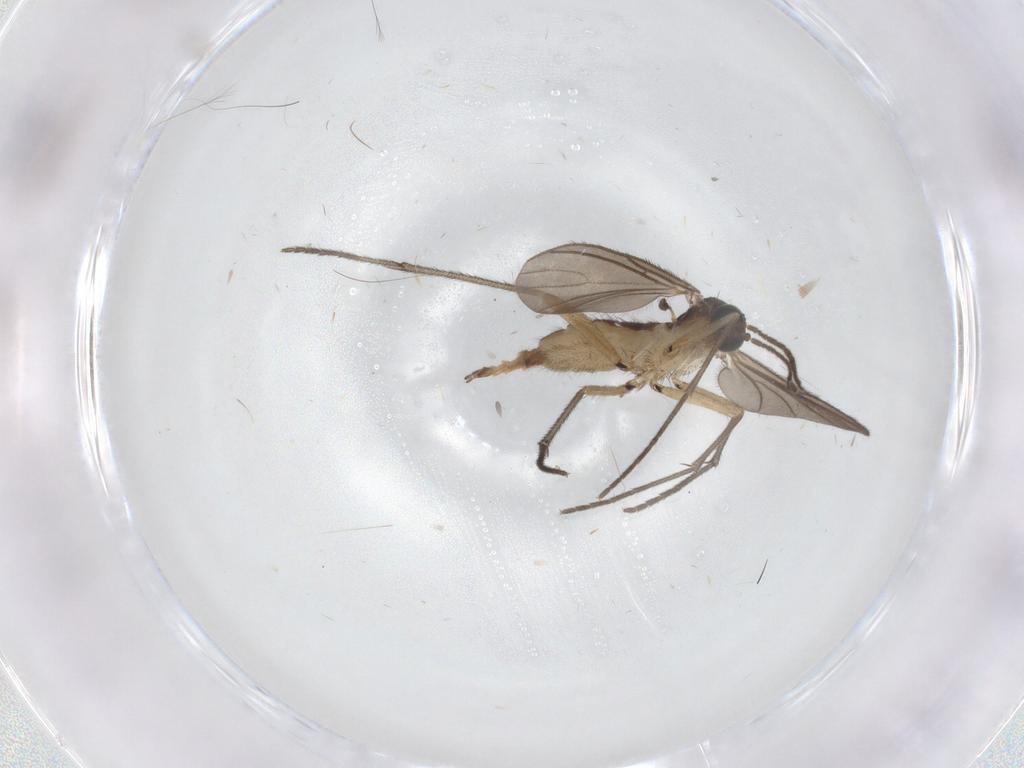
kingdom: Animalia
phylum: Arthropoda
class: Insecta
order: Diptera
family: Sciaridae
